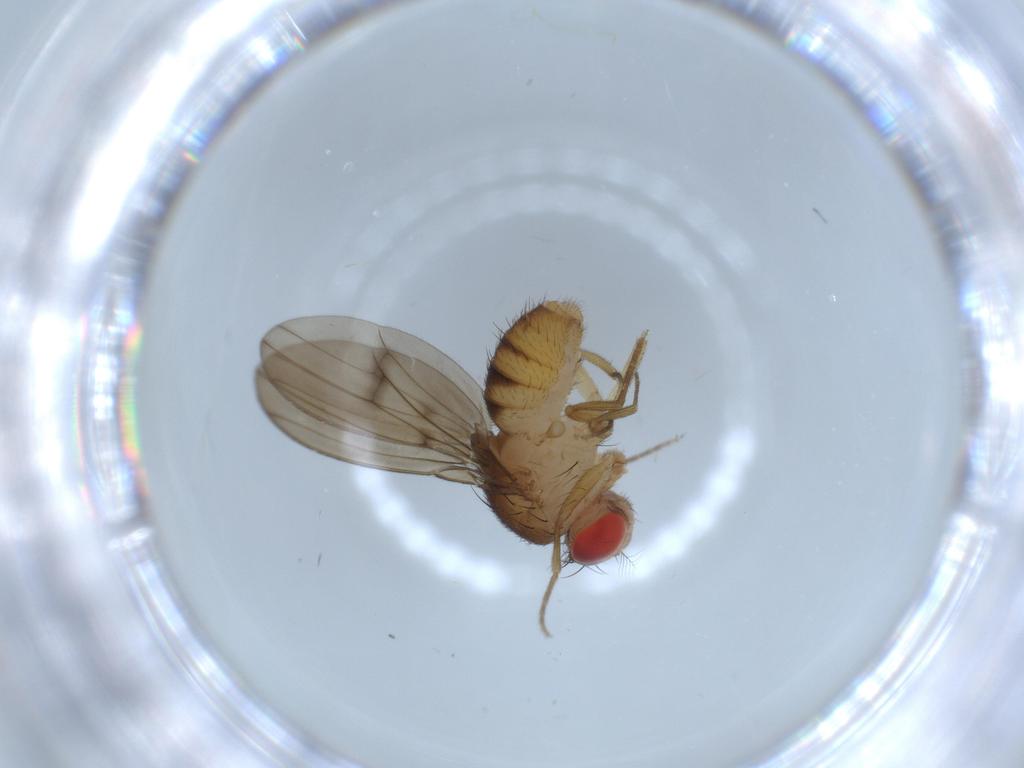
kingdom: Animalia
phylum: Arthropoda
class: Insecta
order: Diptera
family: Drosophilidae
